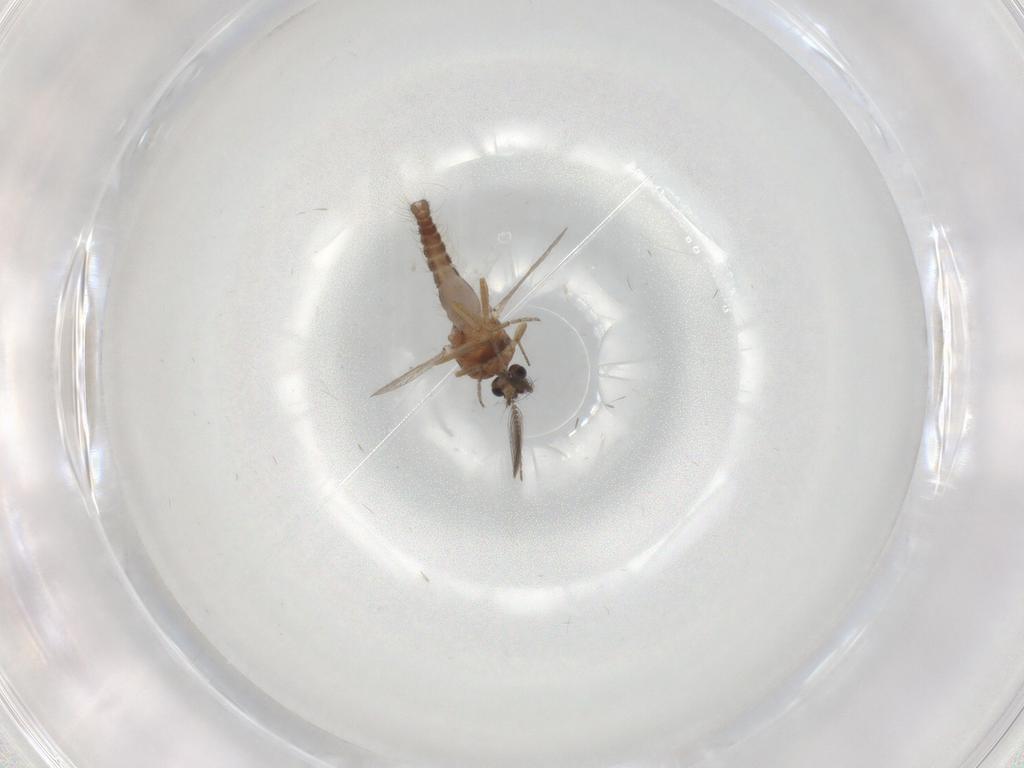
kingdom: Animalia
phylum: Arthropoda
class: Insecta
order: Diptera
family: Ceratopogonidae
